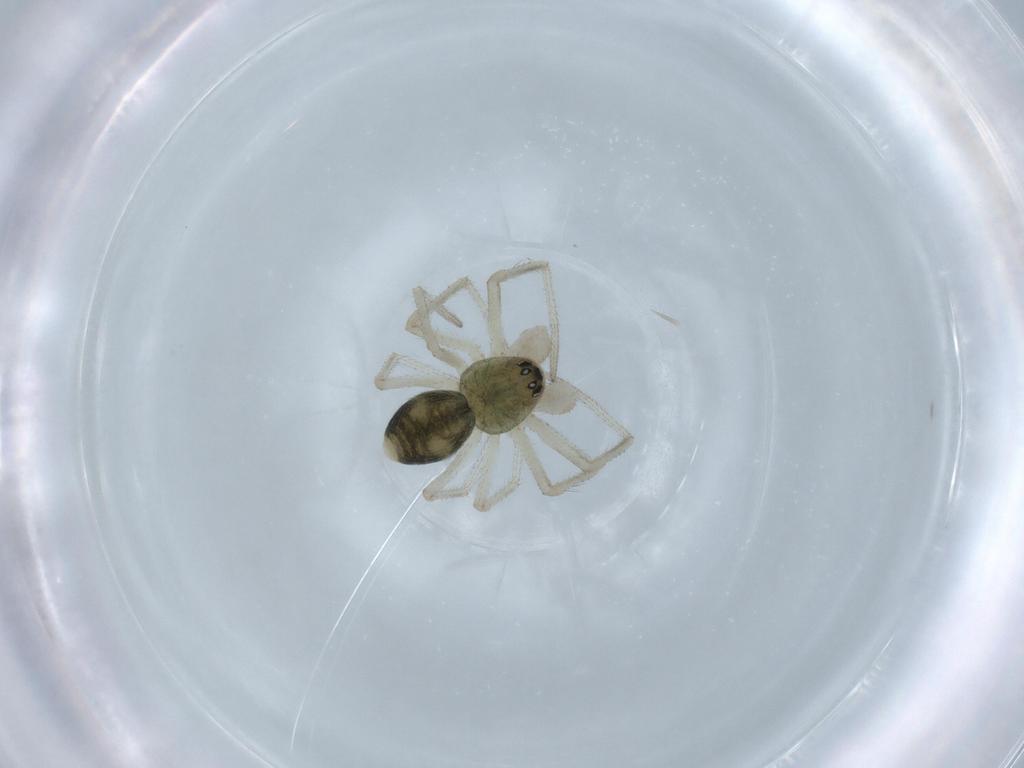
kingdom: Animalia
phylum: Arthropoda
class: Arachnida
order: Araneae
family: Linyphiidae
